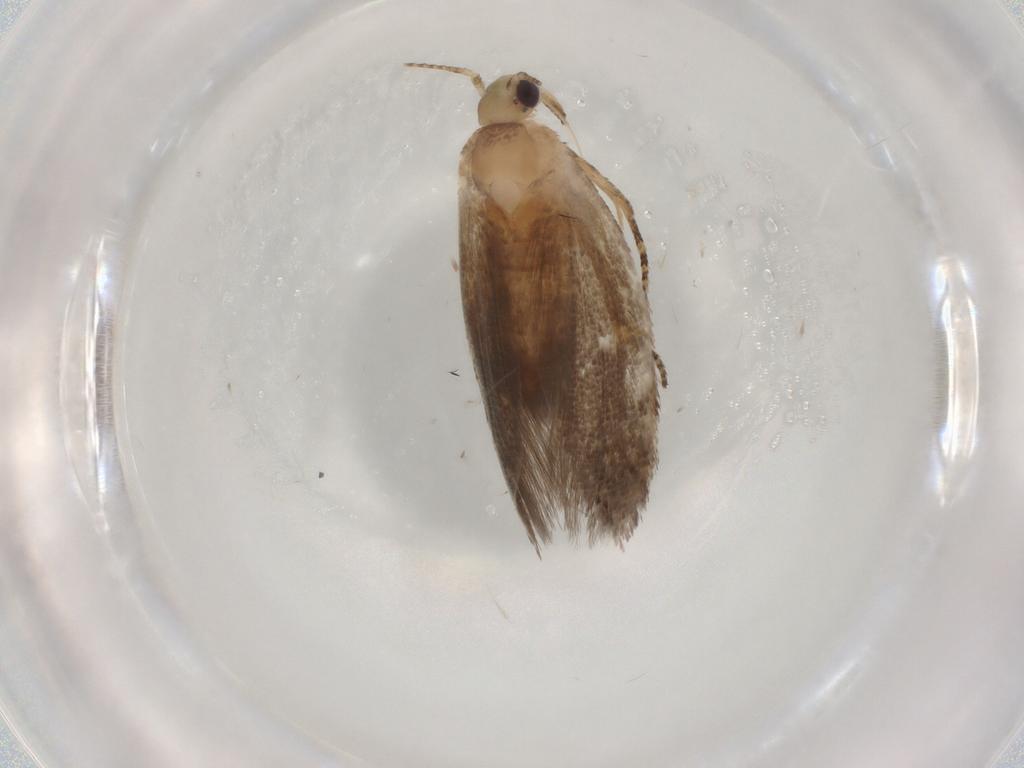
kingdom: Animalia
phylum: Arthropoda
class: Insecta
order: Lepidoptera
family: Plutellidae
